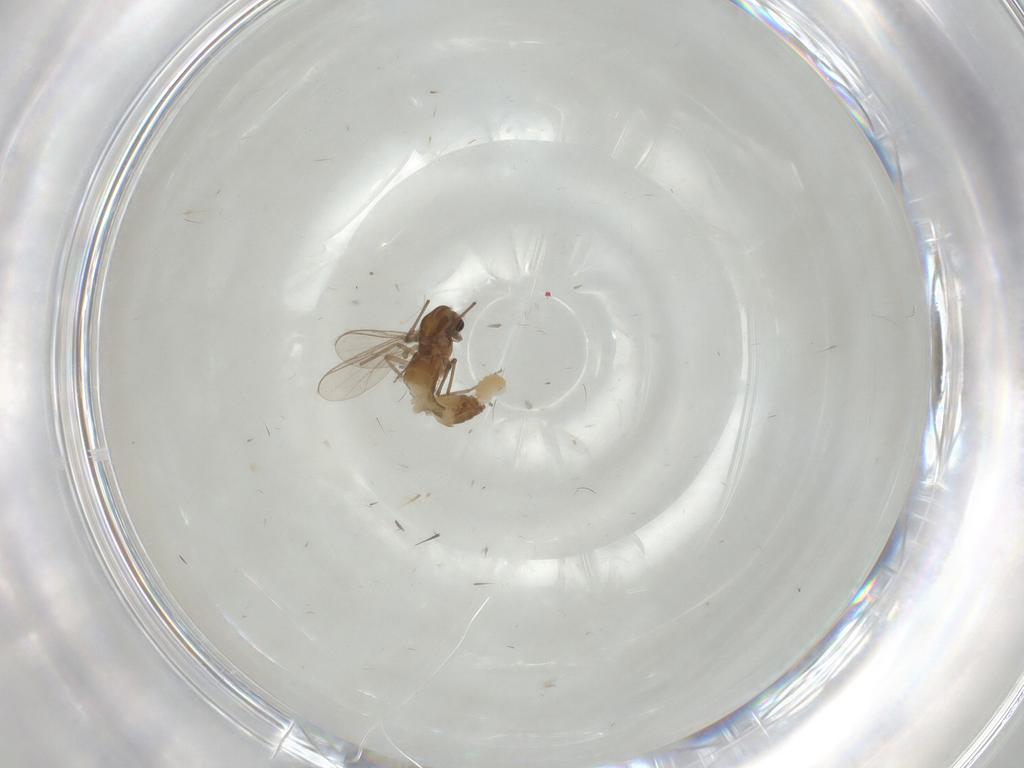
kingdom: Animalia
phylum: Arthropoda
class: Insecta
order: Diptera
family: Chironomidae
